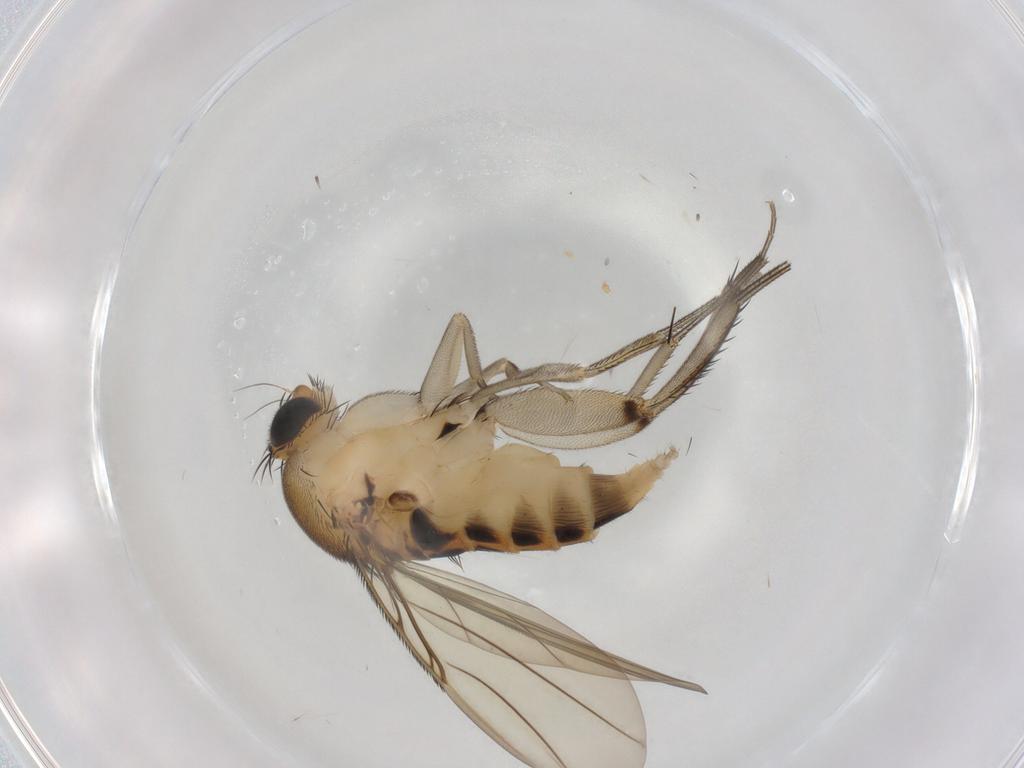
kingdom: Animalia
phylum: Arthropoda
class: Insecta
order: Diptera
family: Phoridae
